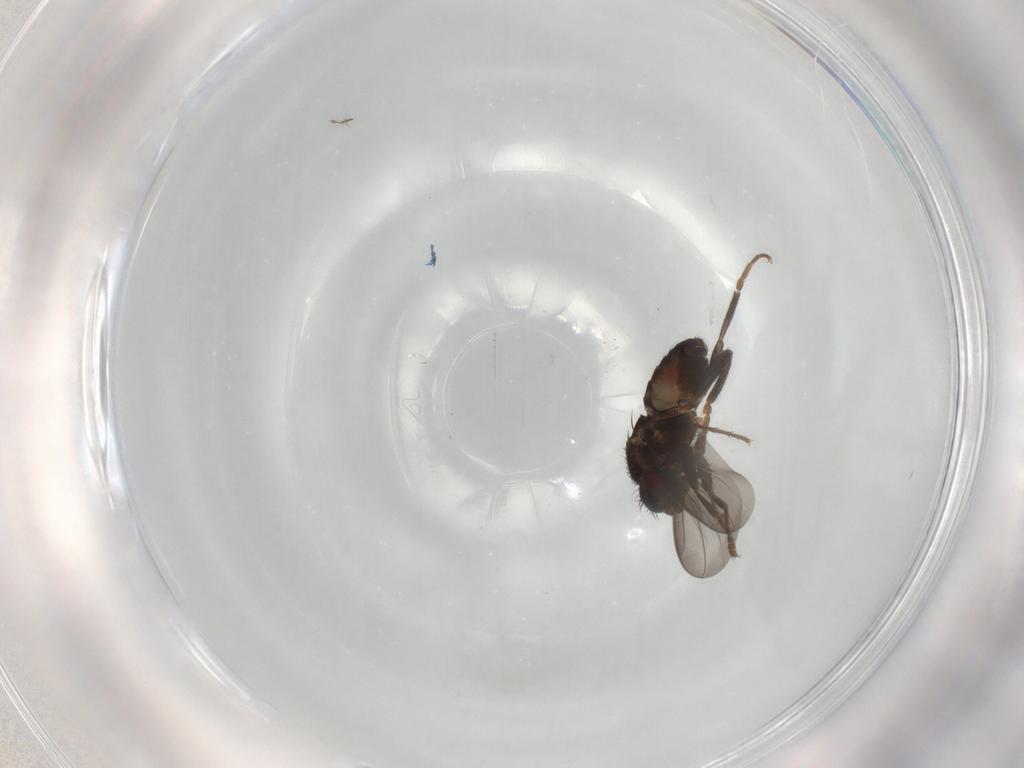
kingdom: Animalia
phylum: Arthropoda
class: Insecta
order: Diptera
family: Sphaeroceridae
